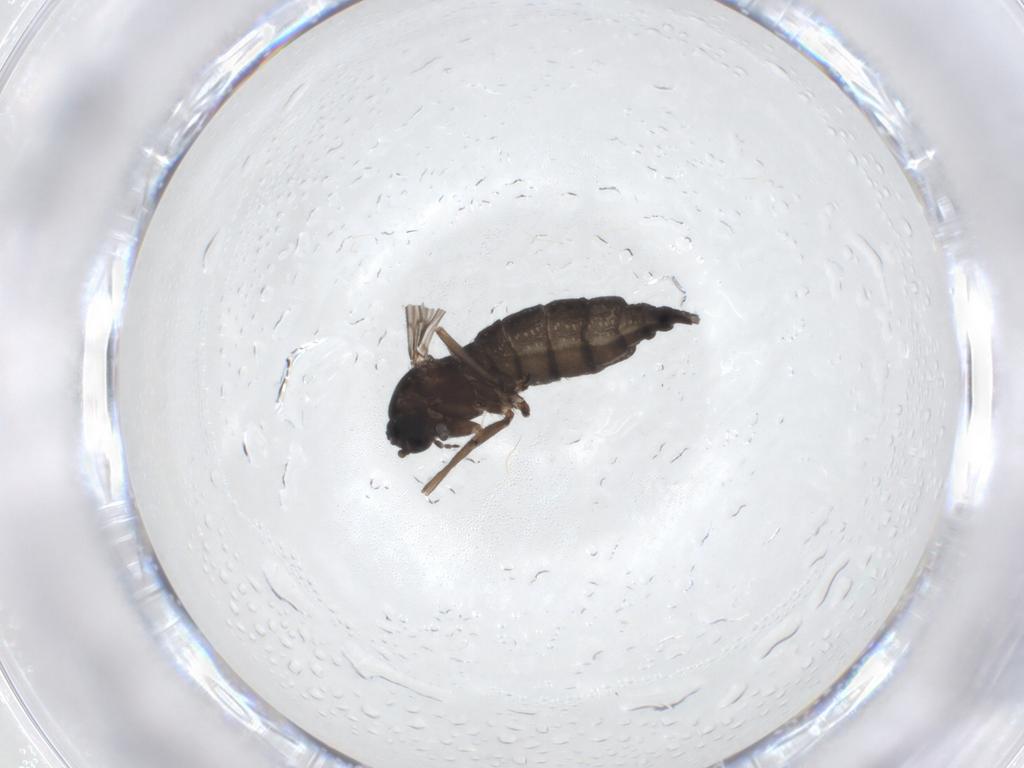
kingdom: Animalia
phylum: Arthropoda
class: Insecta
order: Diptera
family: Sciaridae
